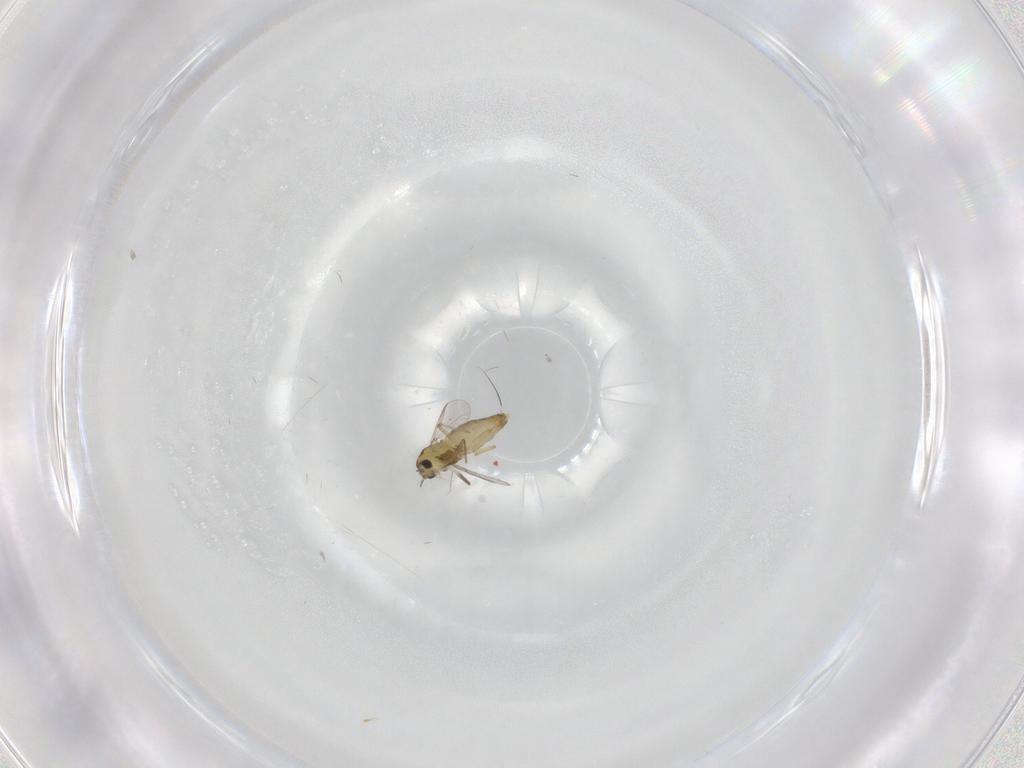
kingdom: Animalia
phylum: Arthropoda
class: Insecta
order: Diptera
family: Chironomidae
